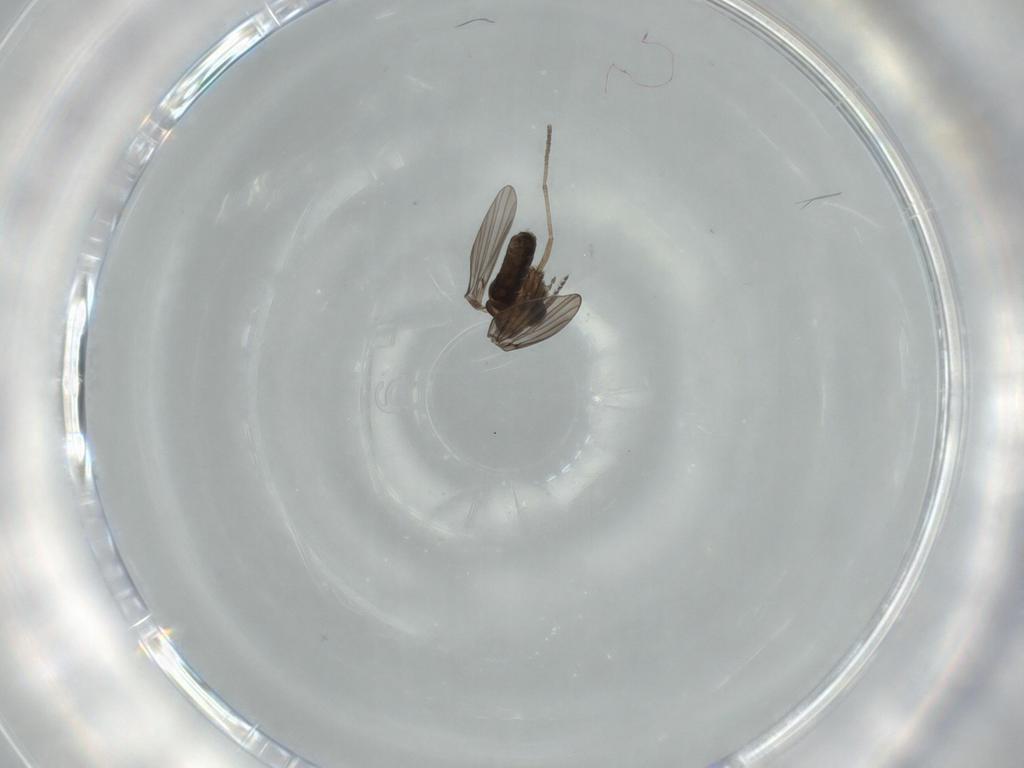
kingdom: Animalia
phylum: Arthropoda
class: Insecta
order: Diptera
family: Psychodidae
